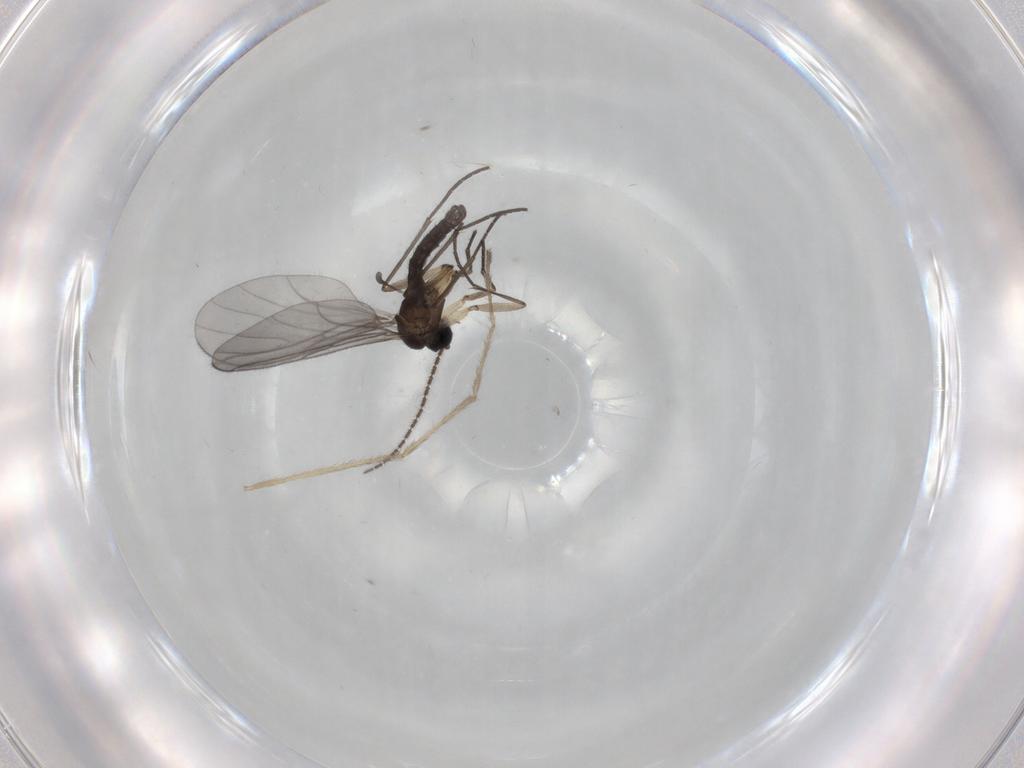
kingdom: Animalia
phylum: Arthropoda
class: Insecta
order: Diptera
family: Sciaridae
